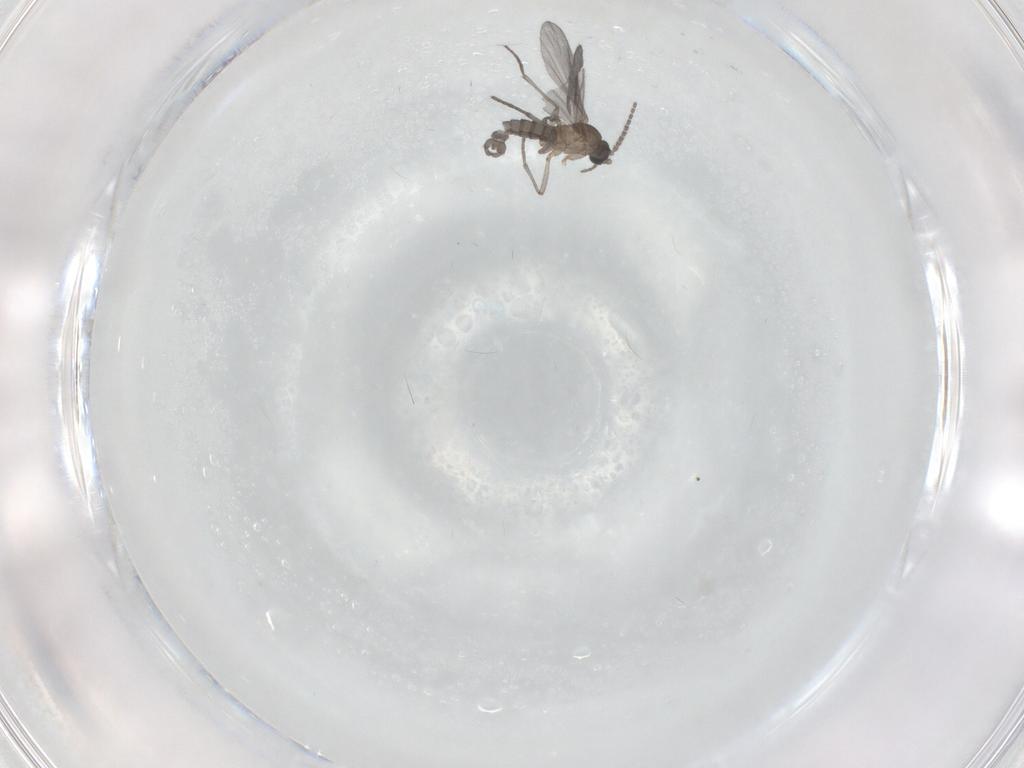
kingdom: Animalia
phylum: Arthropoda
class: Insecta
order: Diptera
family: Sciaridae
